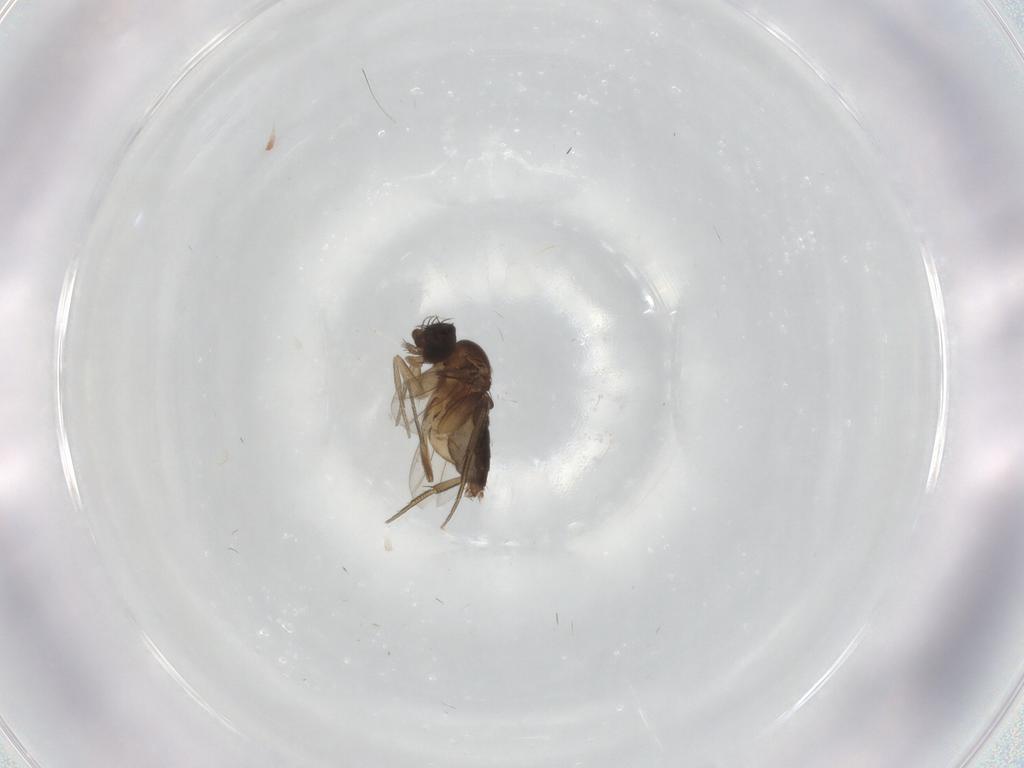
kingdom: Animalia
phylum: Arthropoda
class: Insecta
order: Diptera
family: Phoridae
